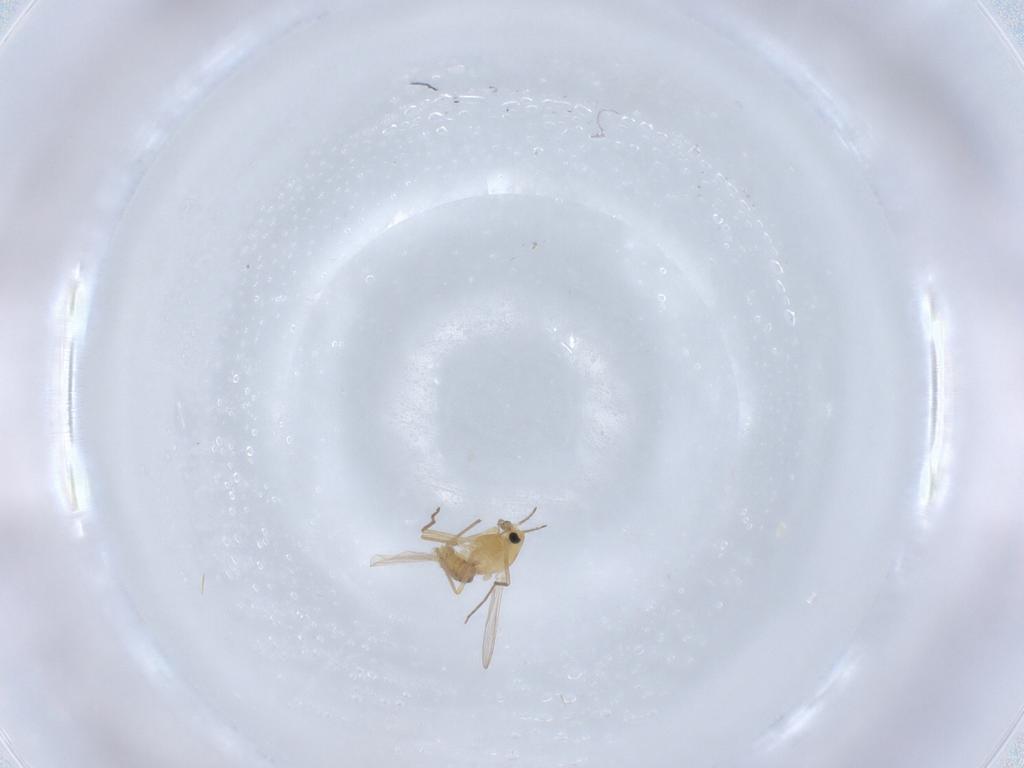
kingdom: Animalia
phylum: Arthropoda
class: Insecta
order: Diptera
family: Chironomidae
